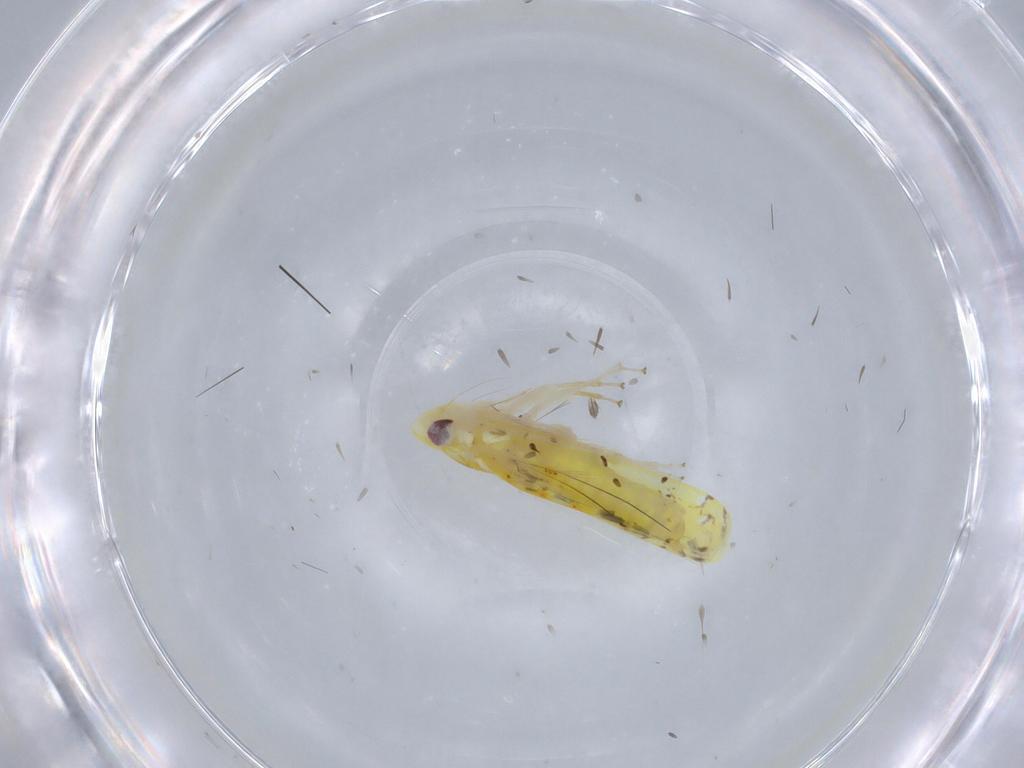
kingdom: Animalia
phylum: Arthropoda
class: Insecta
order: Hemiptera
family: Cicadellidae
